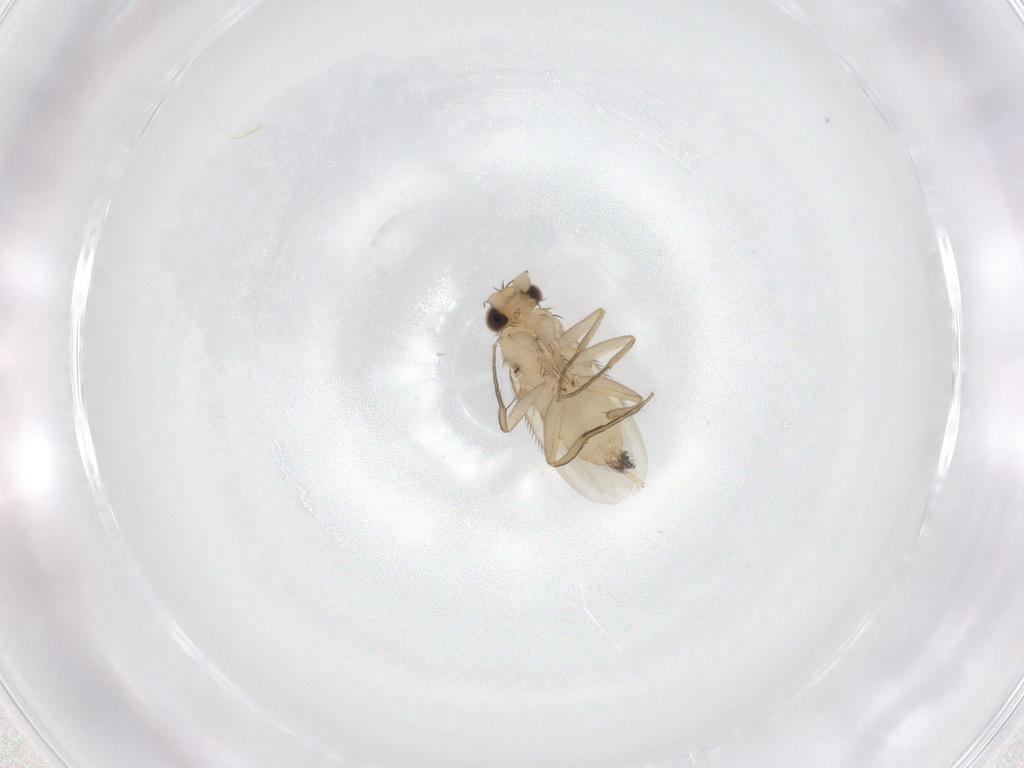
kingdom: Animalia
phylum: Arthropoda
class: Insecta
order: Diptera
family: Phoridae
